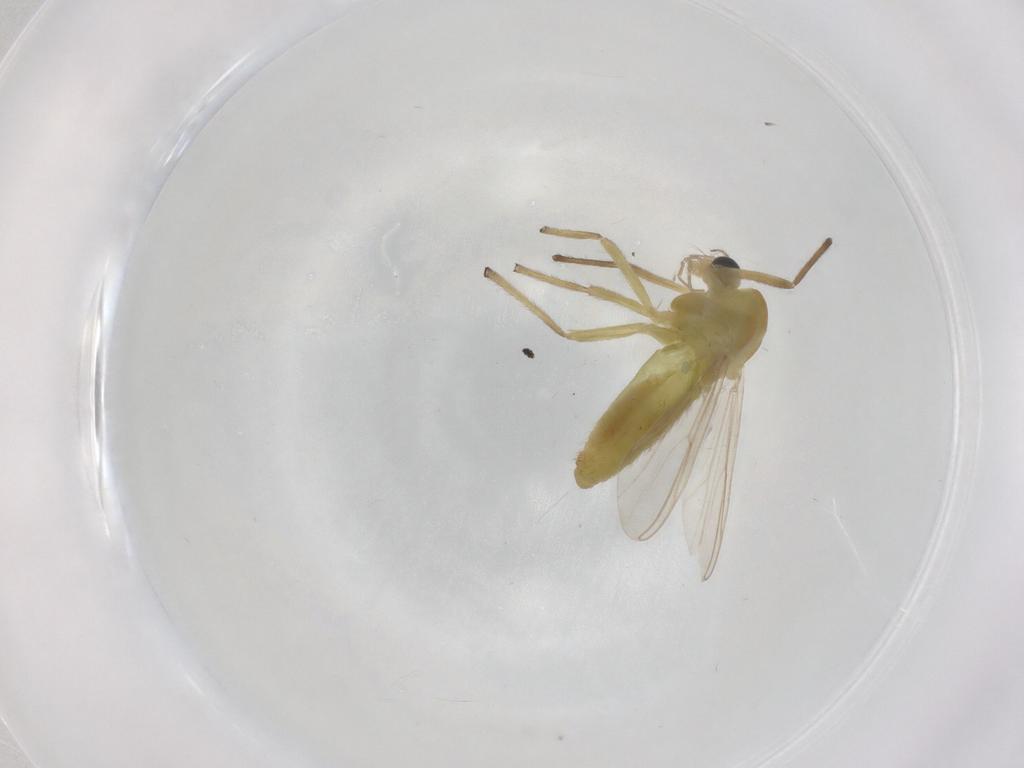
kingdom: Animalia
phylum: Arthropoda
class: Insecta
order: Diptera
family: Chironomidae
